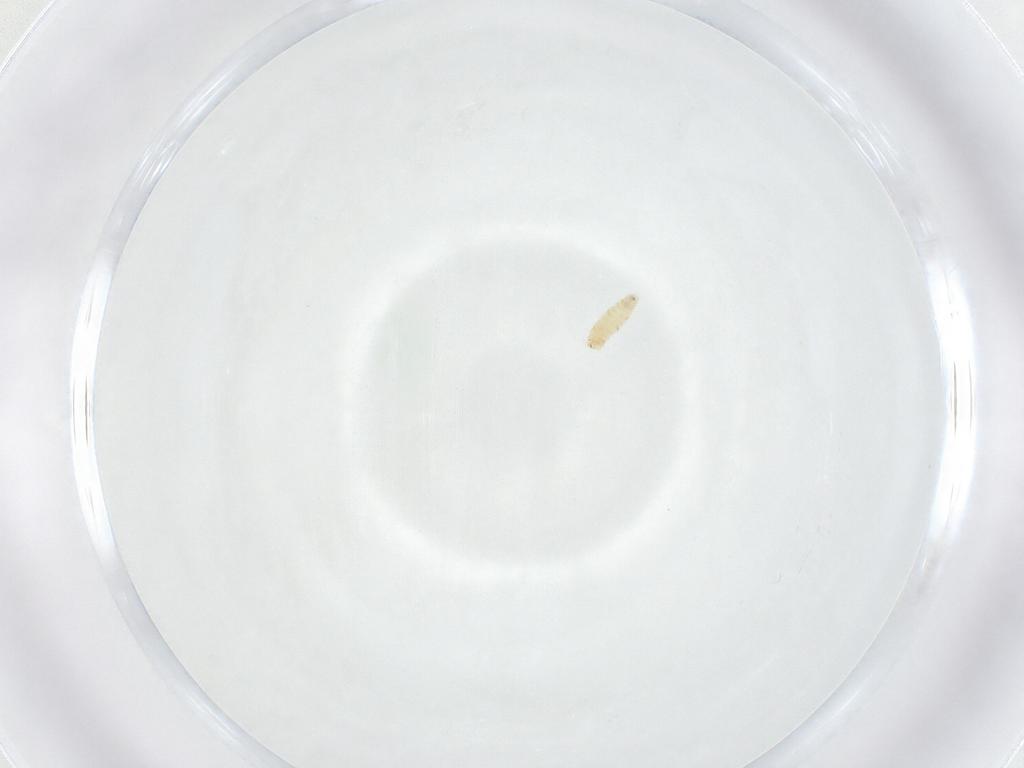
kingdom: Animalia
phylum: Arthropoda
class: Insecta
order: Diptera
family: Sarcophagidae
